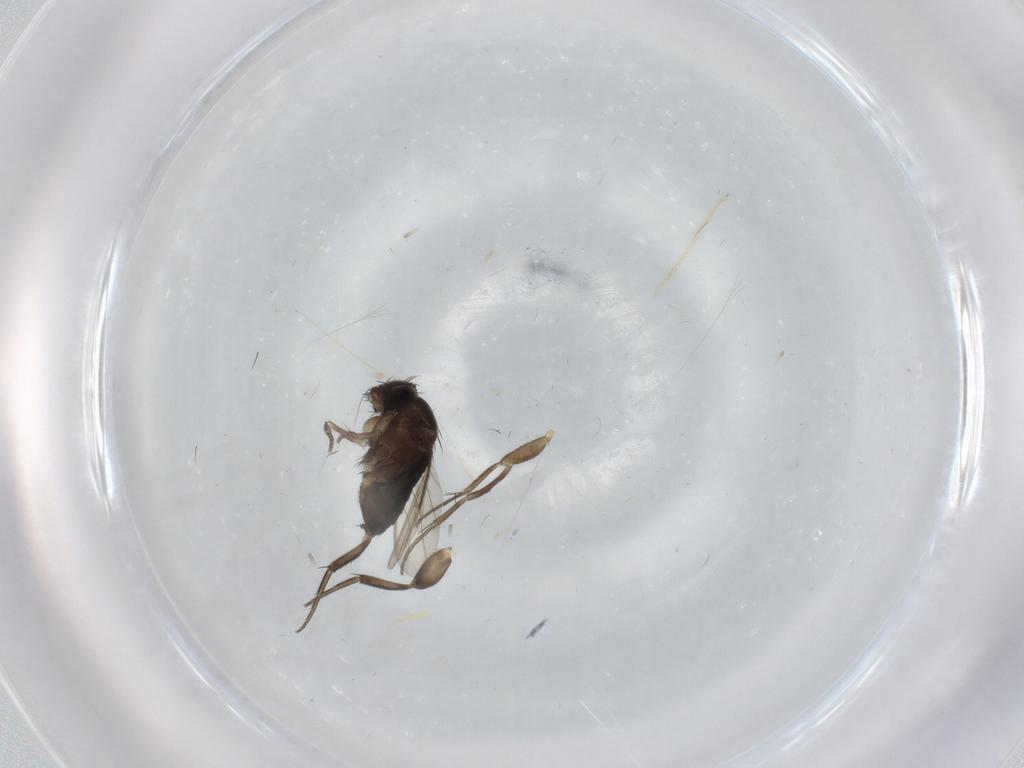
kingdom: Animalia
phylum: Arthropoda
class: Insecta
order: Diptera
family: Phoridae
